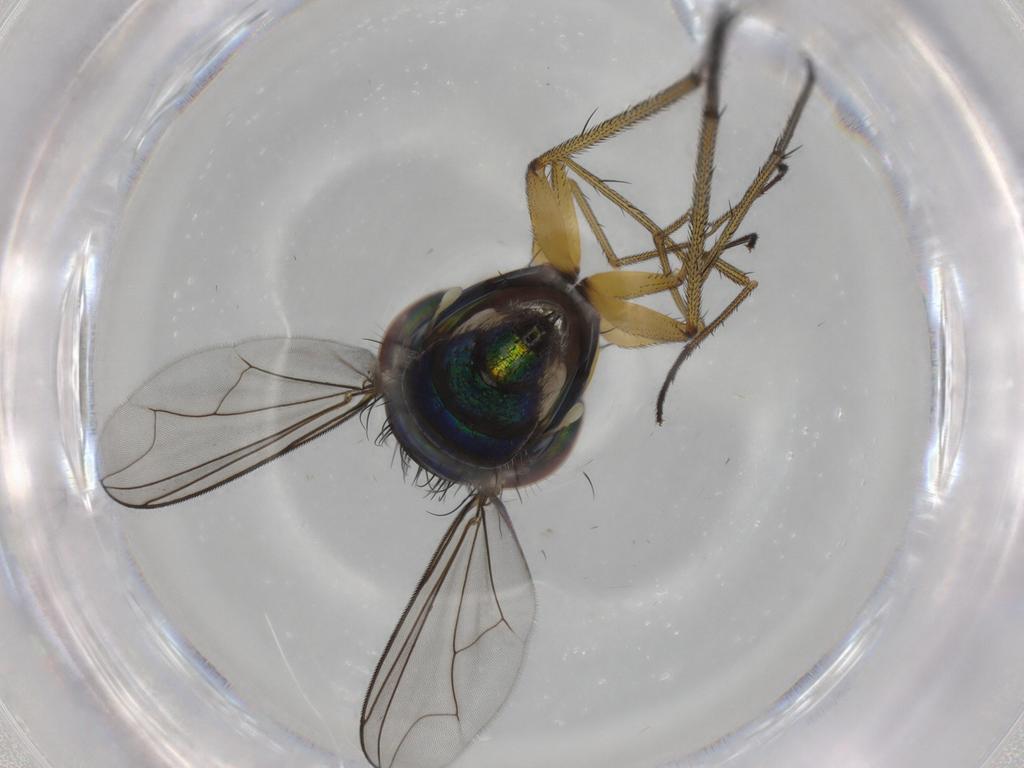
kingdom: Animalia
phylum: Arthropoda
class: Insecta
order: Diptera
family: Dolichopodidae
